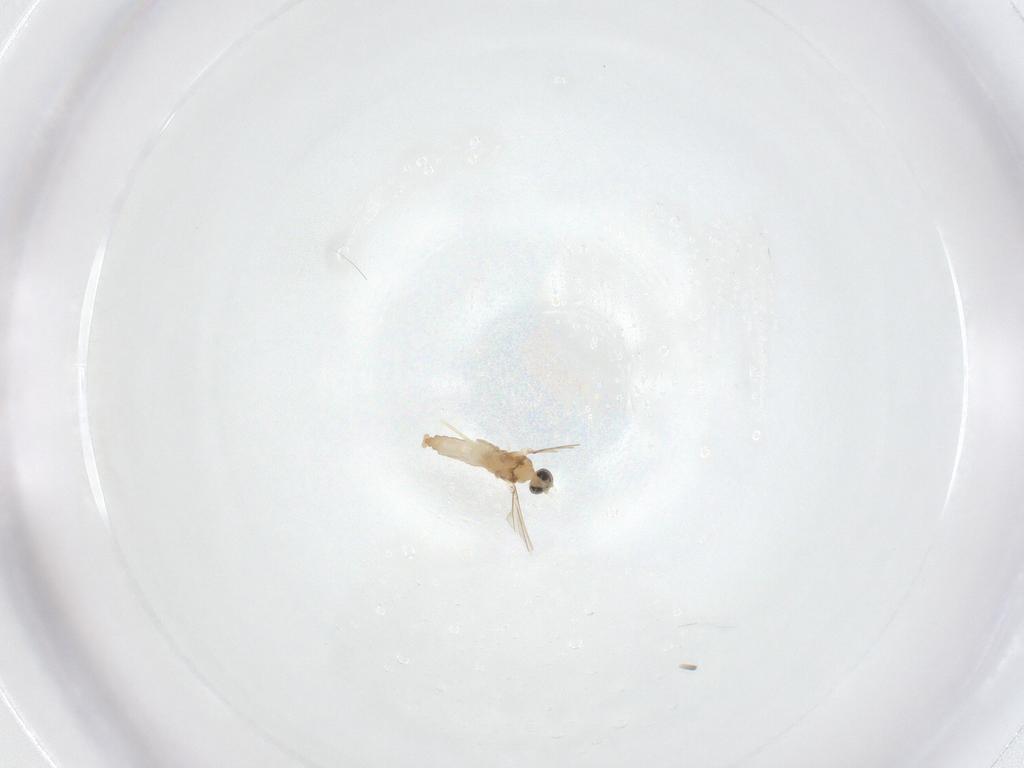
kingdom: Animalia
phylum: Arthropoda
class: Insecta
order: Diptera
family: Cecidomyiidae
